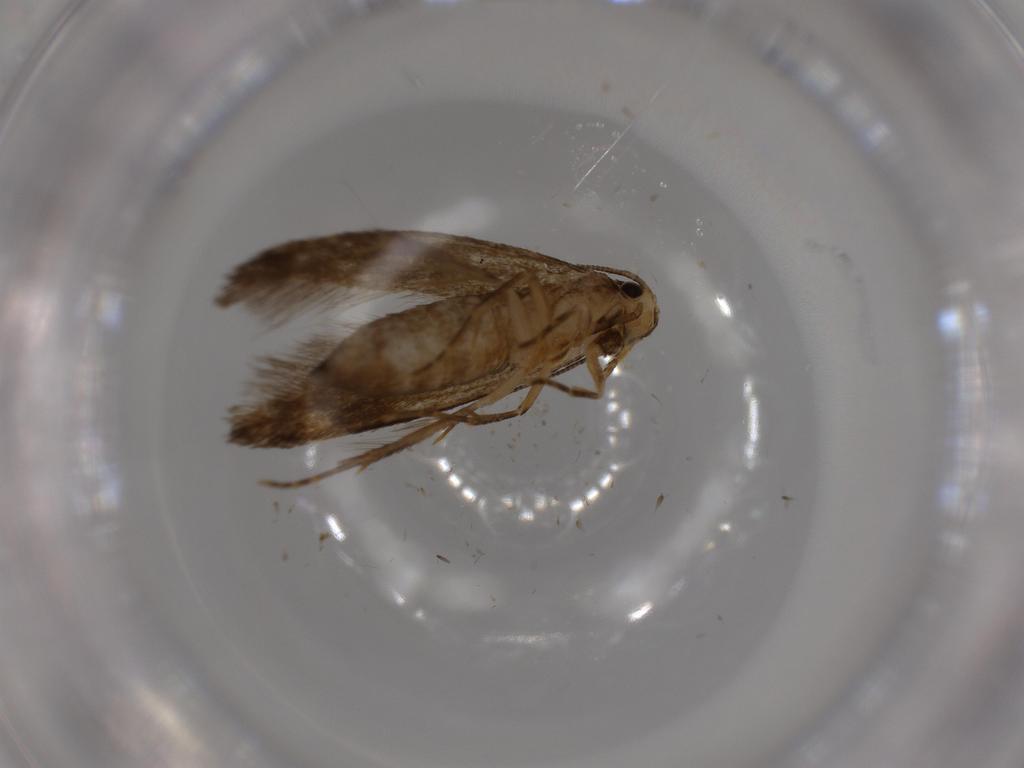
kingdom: Animalia
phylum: Arthropoda
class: Insecta
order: Lepidoptera
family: Tineidae
